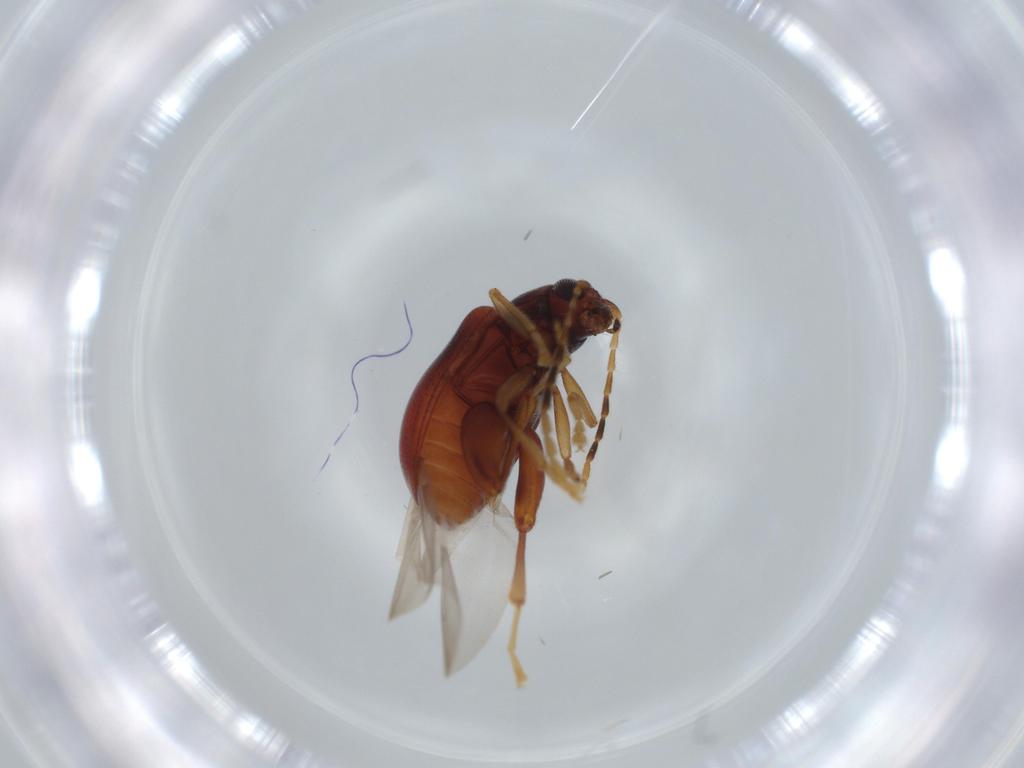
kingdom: Animalia
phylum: Arthropoda
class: Insecta
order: Coleoptera
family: Chrysomelidae
